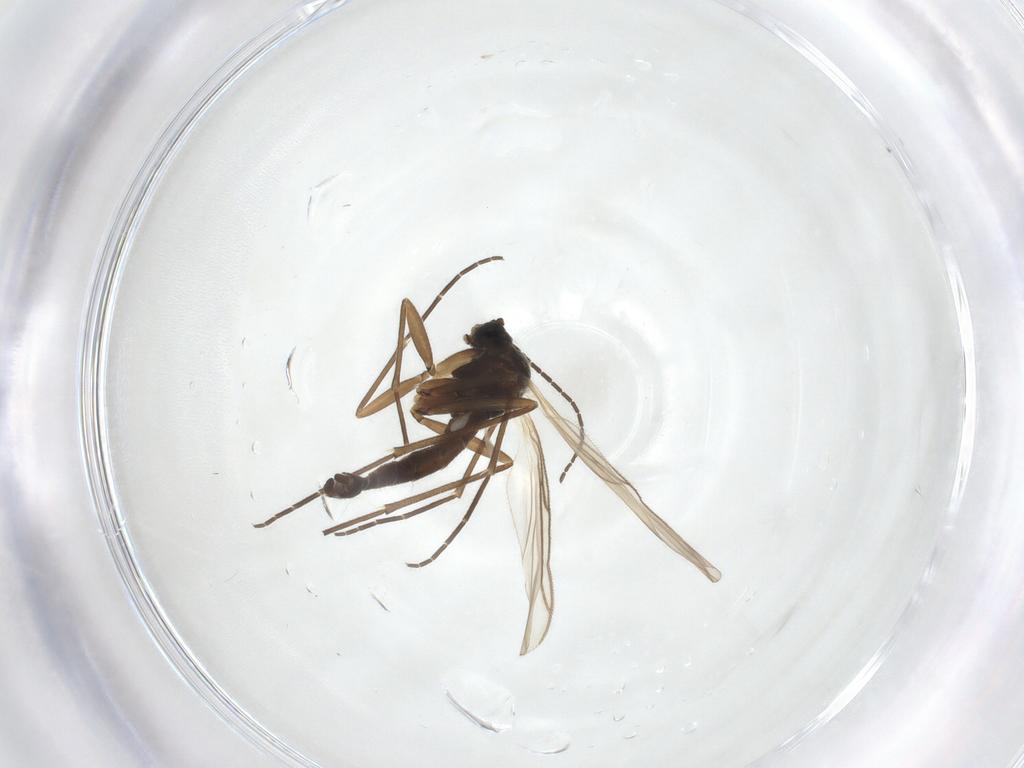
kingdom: Animalia
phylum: Arthropoda
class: Insecta
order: Diptera
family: Sciaridae
